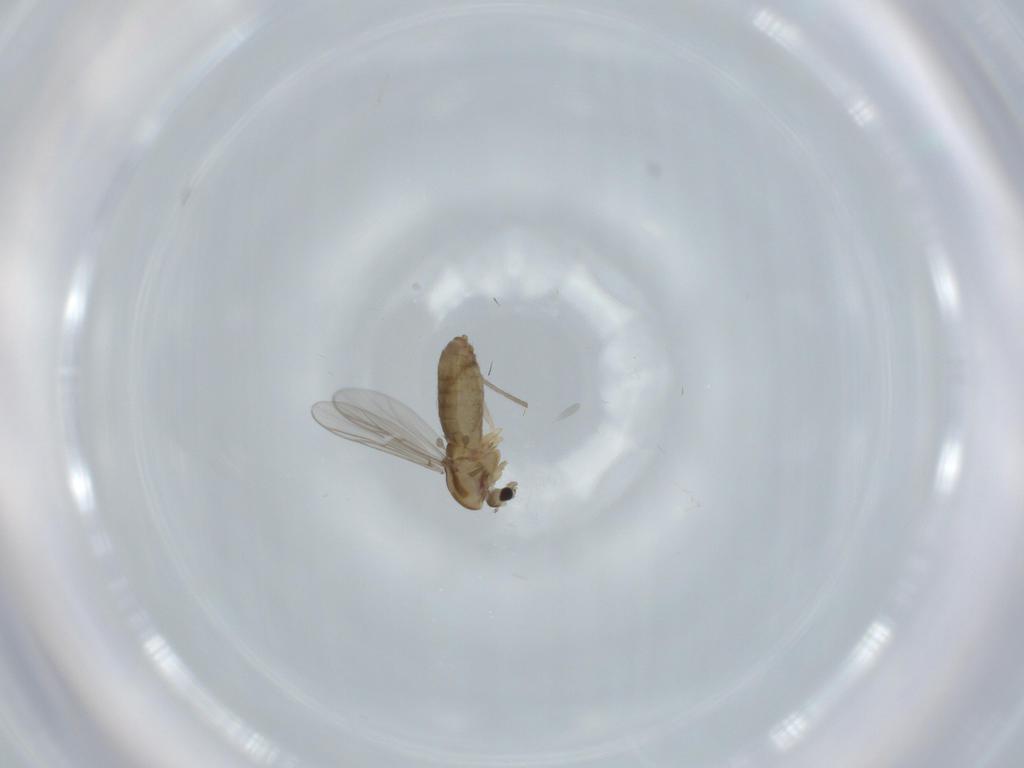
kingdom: Animalia
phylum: Arthropoda
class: Insecta
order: Diptera
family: Chironomidae
